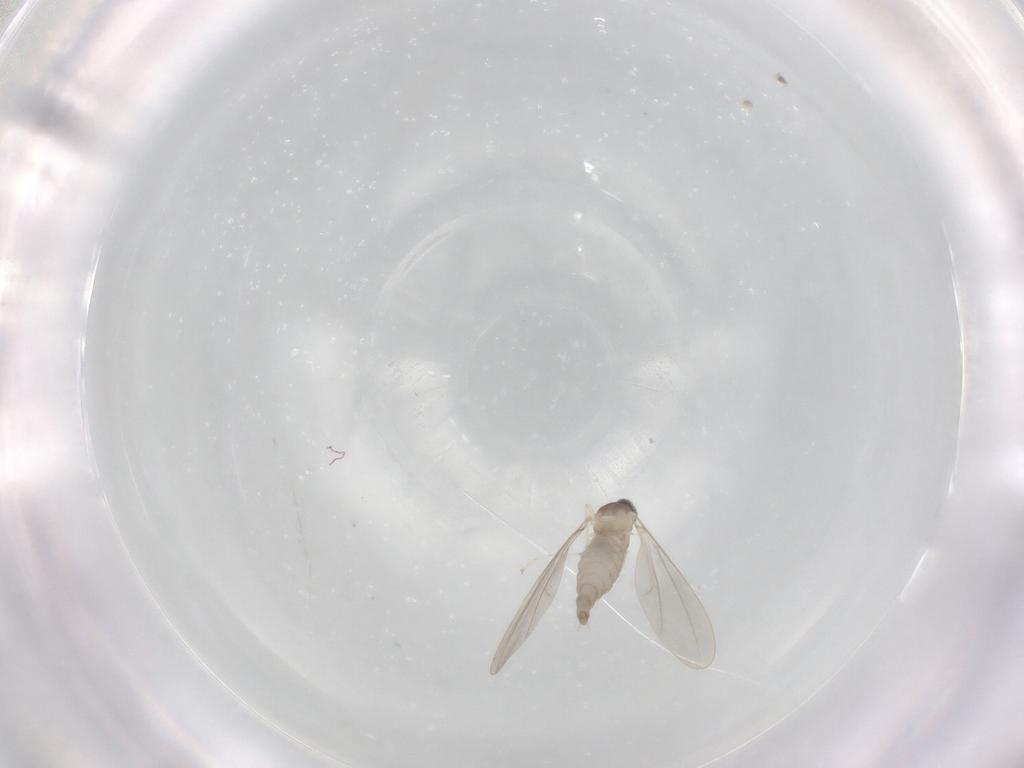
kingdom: Animalia
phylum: Arthropoda
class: Insecta
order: Diptera
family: Cecidomyiidae
